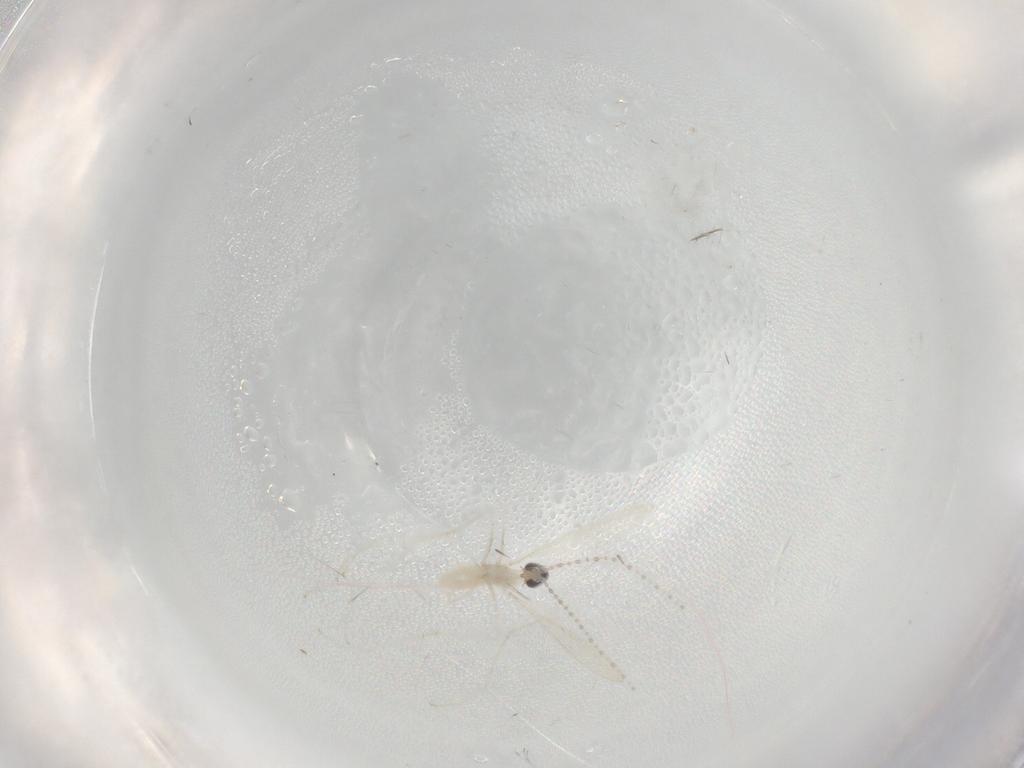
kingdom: Animalia
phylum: Arthropoda
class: Insecta
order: Diptera
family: Cecidomyiidae
